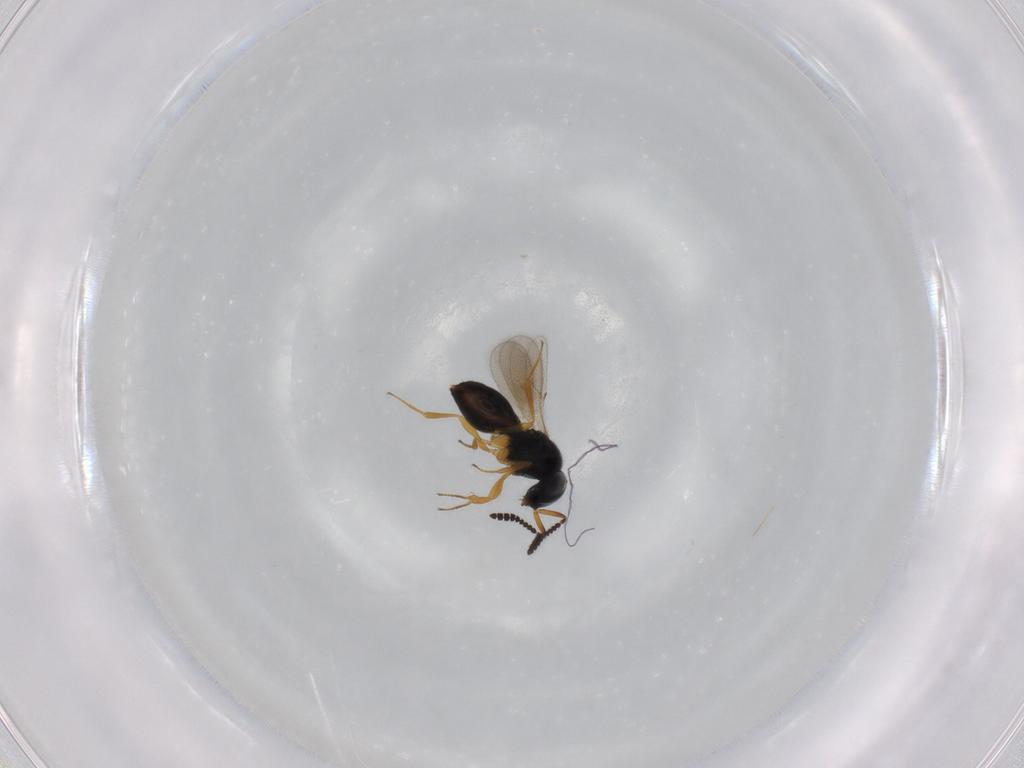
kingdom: Animalia
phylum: Arthropoda
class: Insecta
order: Hymenoptera
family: Scelionidae
